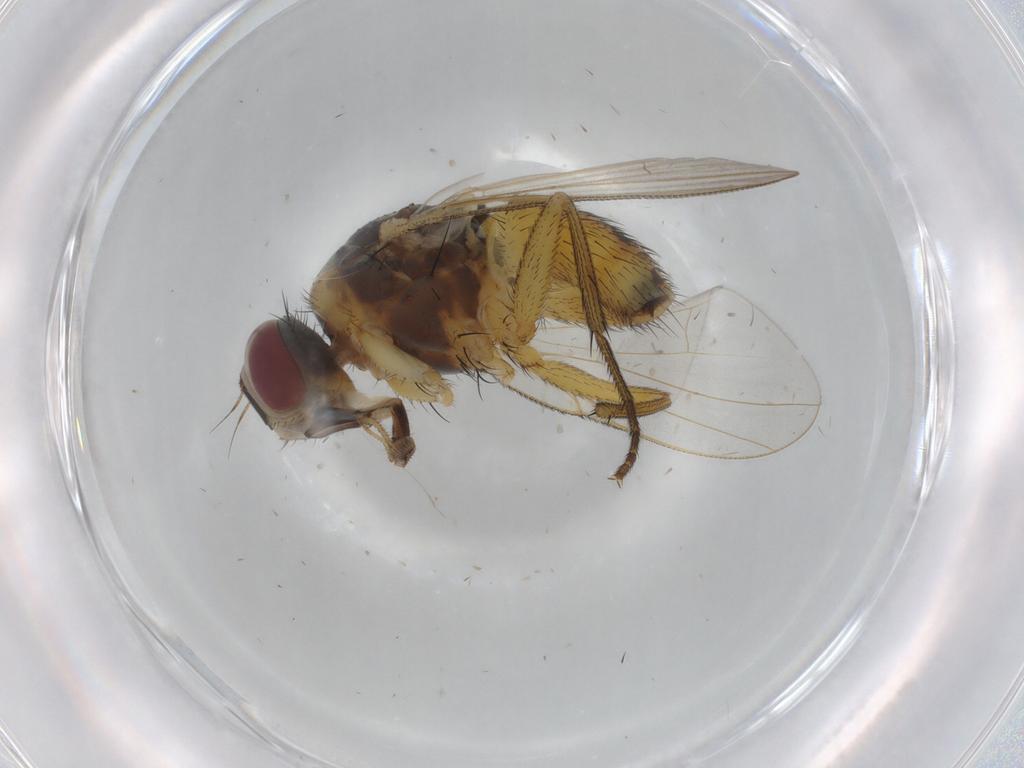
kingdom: Animalia
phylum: Arthropoda
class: Insecta
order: Diptera
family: Muscidae
